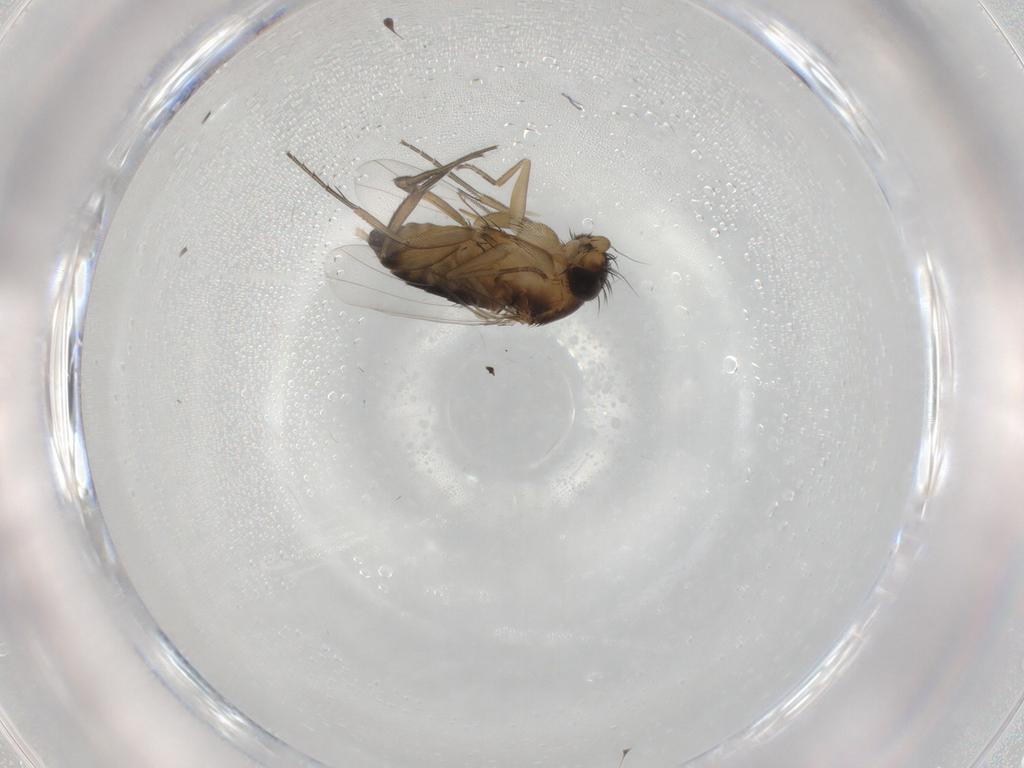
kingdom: Animalia
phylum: Arthropoda
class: Insecta
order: Diptera
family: Phoridae
